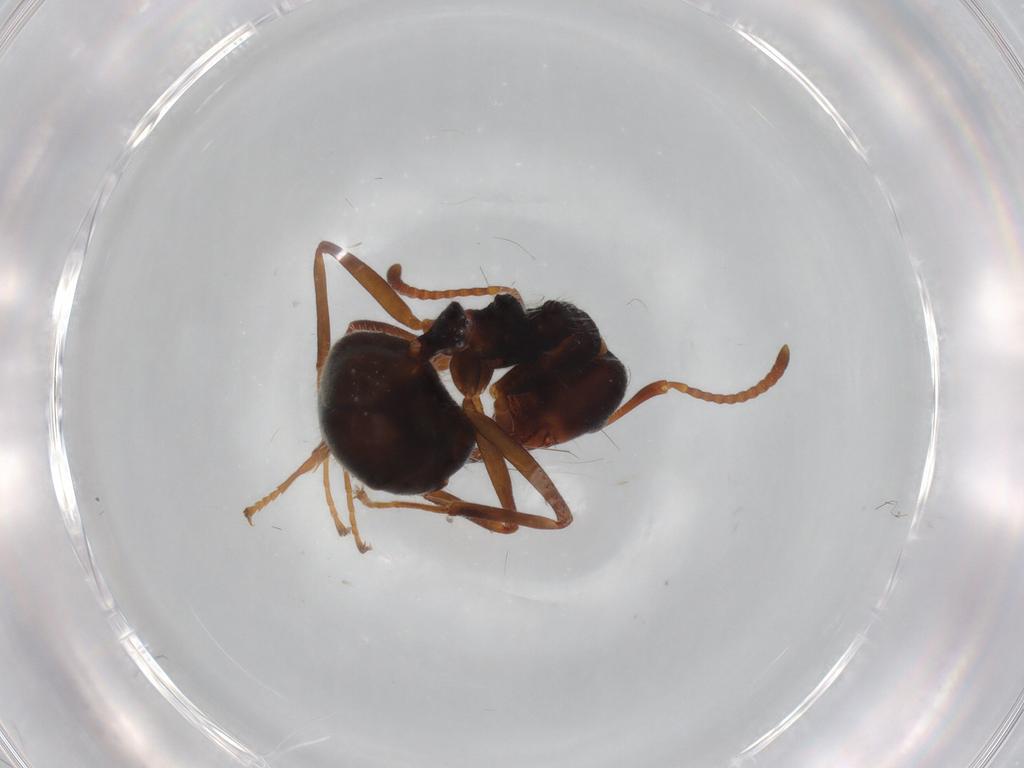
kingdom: Animalia
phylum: Arthropoda
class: Insecta
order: Hymenoptera
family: Formicidae
